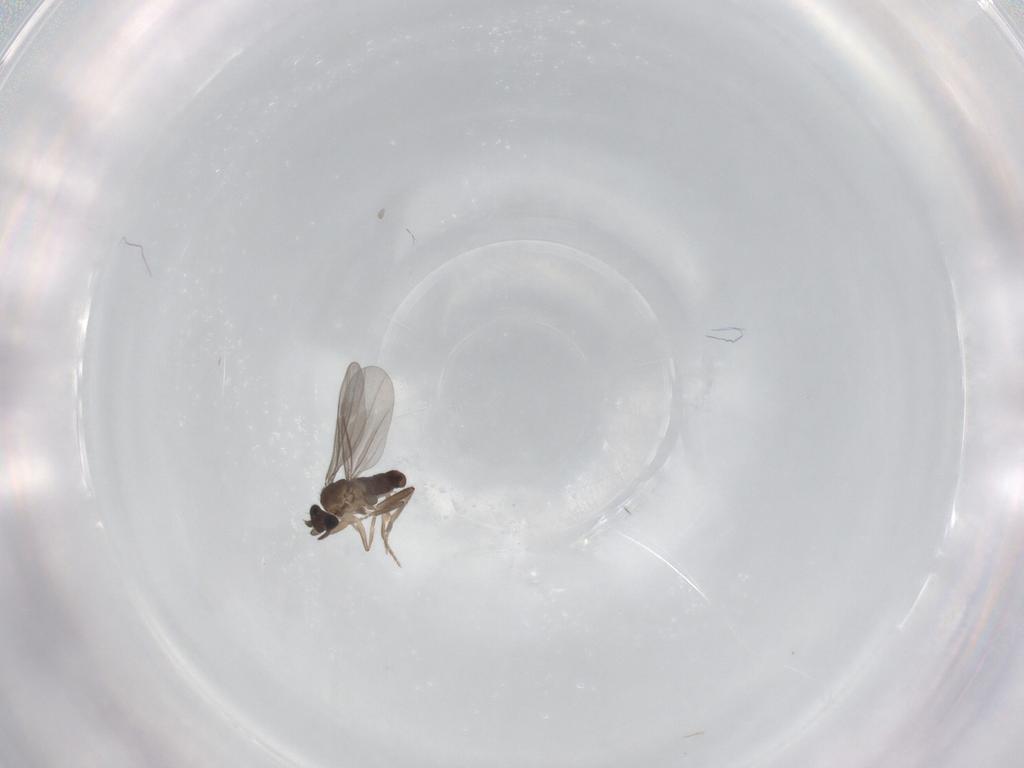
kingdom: Animalia
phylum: Arthropoda
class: Insecta
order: Diptera
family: Phoridae
